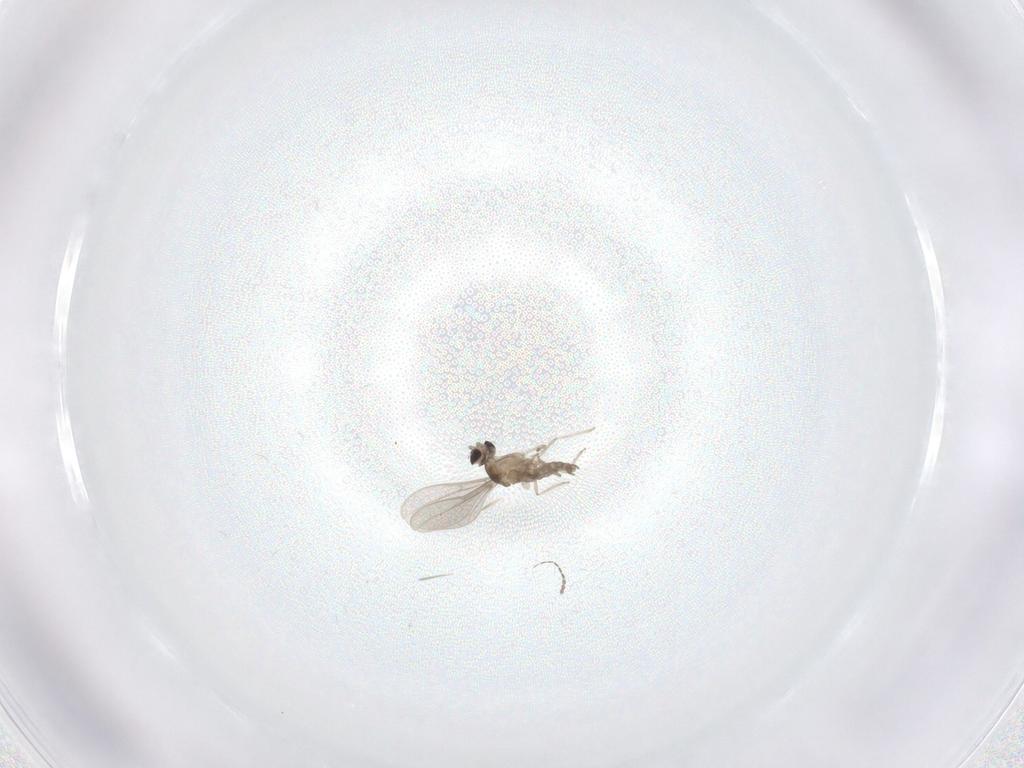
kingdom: Animalia
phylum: Arthropoda
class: Insecta
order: Diptera
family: Cecidomyiidae
